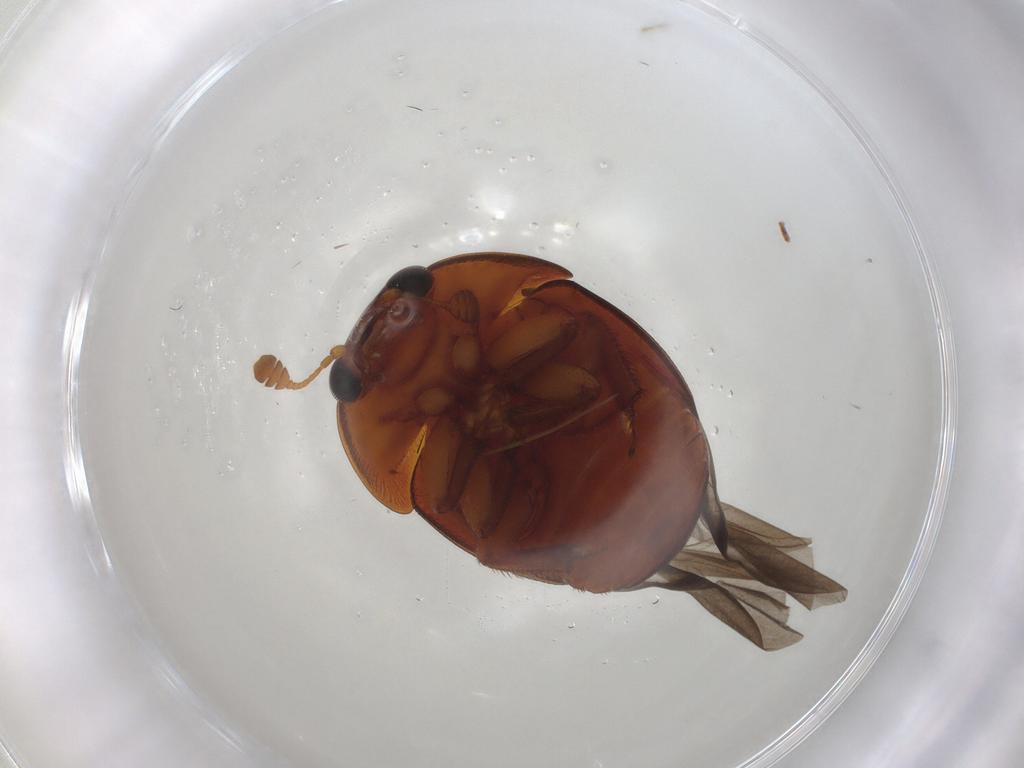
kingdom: Animalia
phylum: Arthropoda
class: Insecta
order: Coleoptera
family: Nitidulidae
